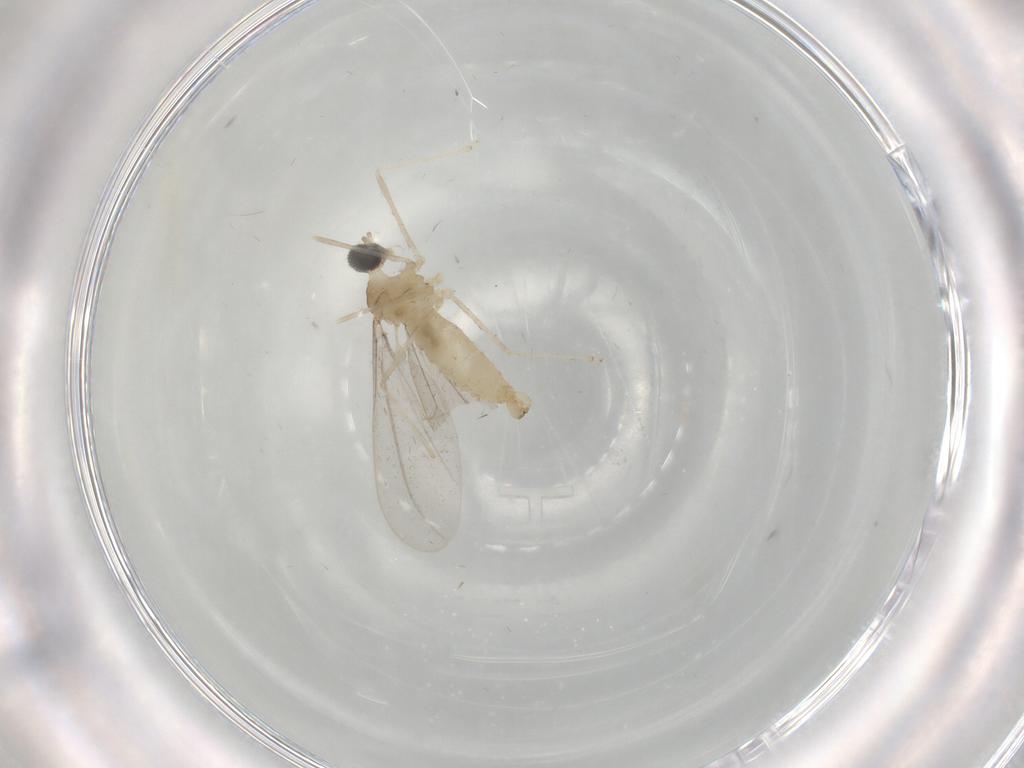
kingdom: Animalia
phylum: Arthropoda
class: Insecta
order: Diptera
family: Cecidomyiidae
